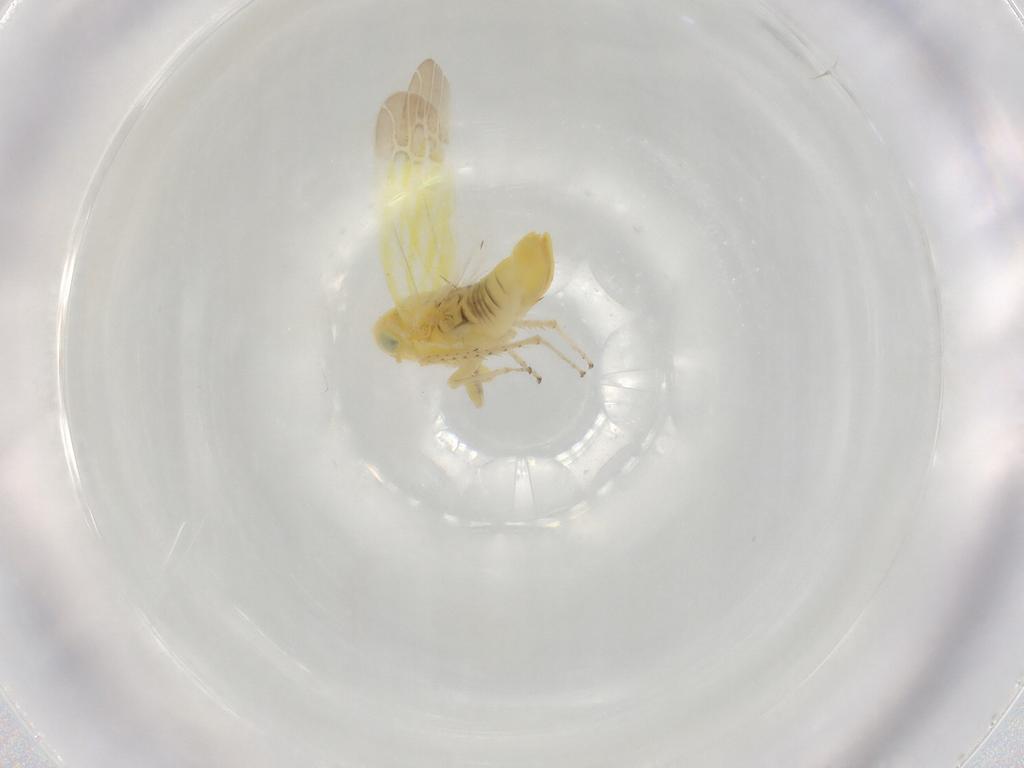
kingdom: Animalia
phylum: Arthropoda
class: Insecta
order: Hemiptera
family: Cicadellidae
